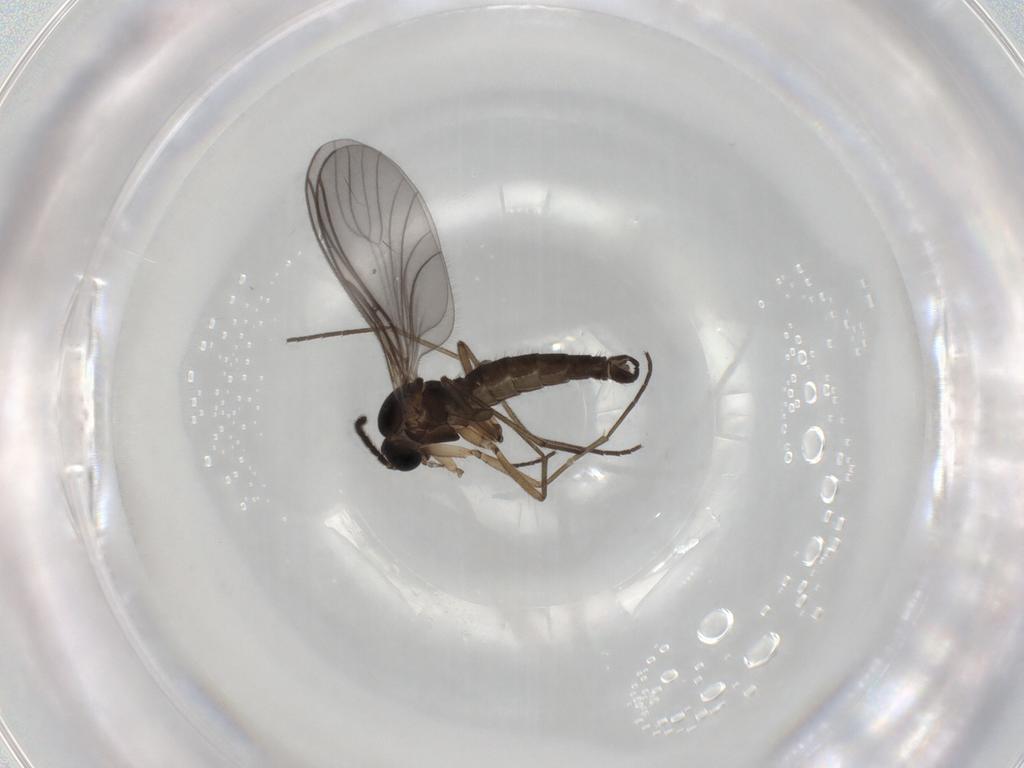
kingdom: Animalia
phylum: Arthropoda
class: Insecta
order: Diptera
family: Sciaridae
